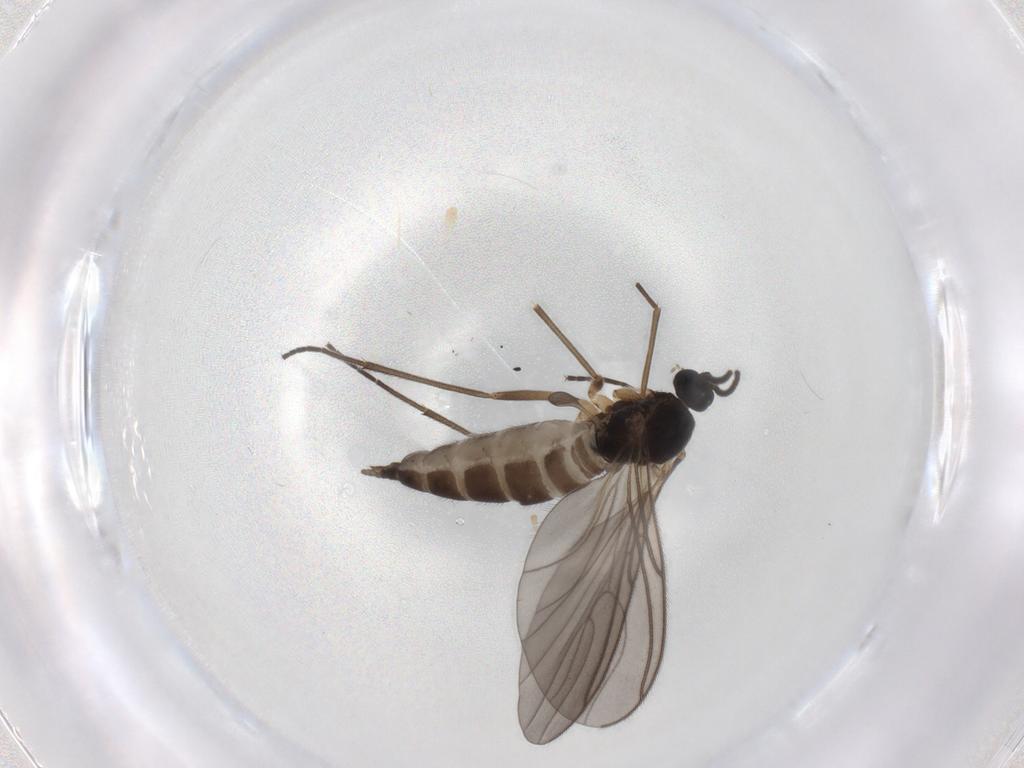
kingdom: Animalia
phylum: Arthropoda
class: Insecta
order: Diptera
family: Sciaridae
